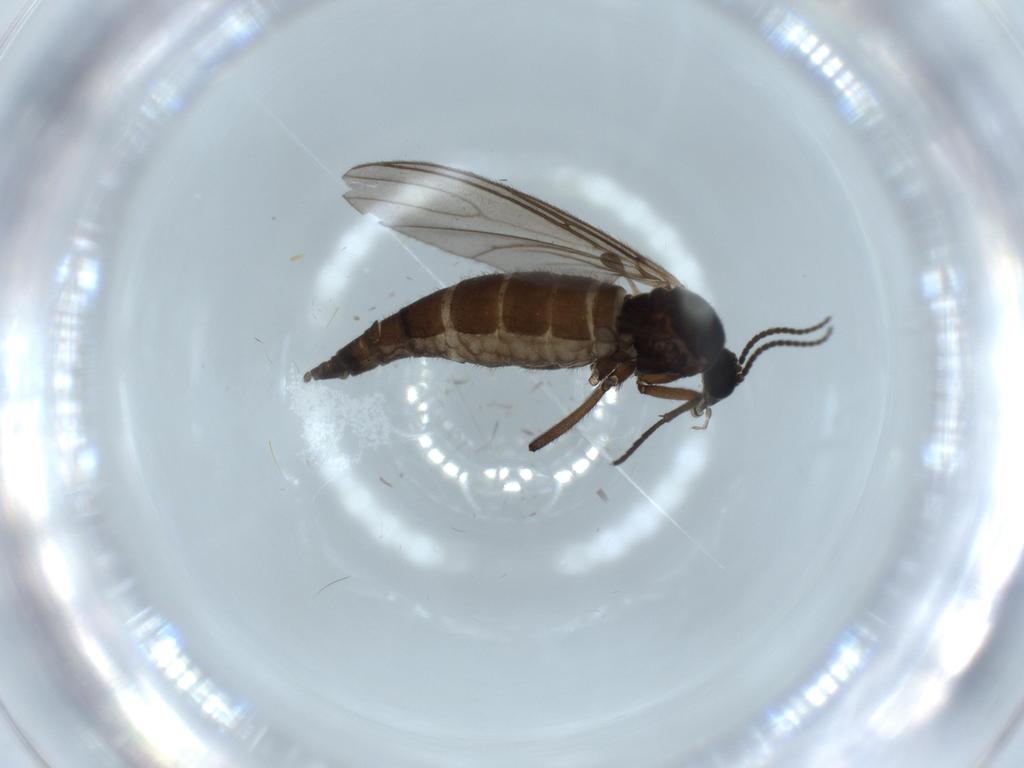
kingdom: Animalia
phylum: Arthropoda
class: Insecta
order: Diptera
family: Sciaridae
